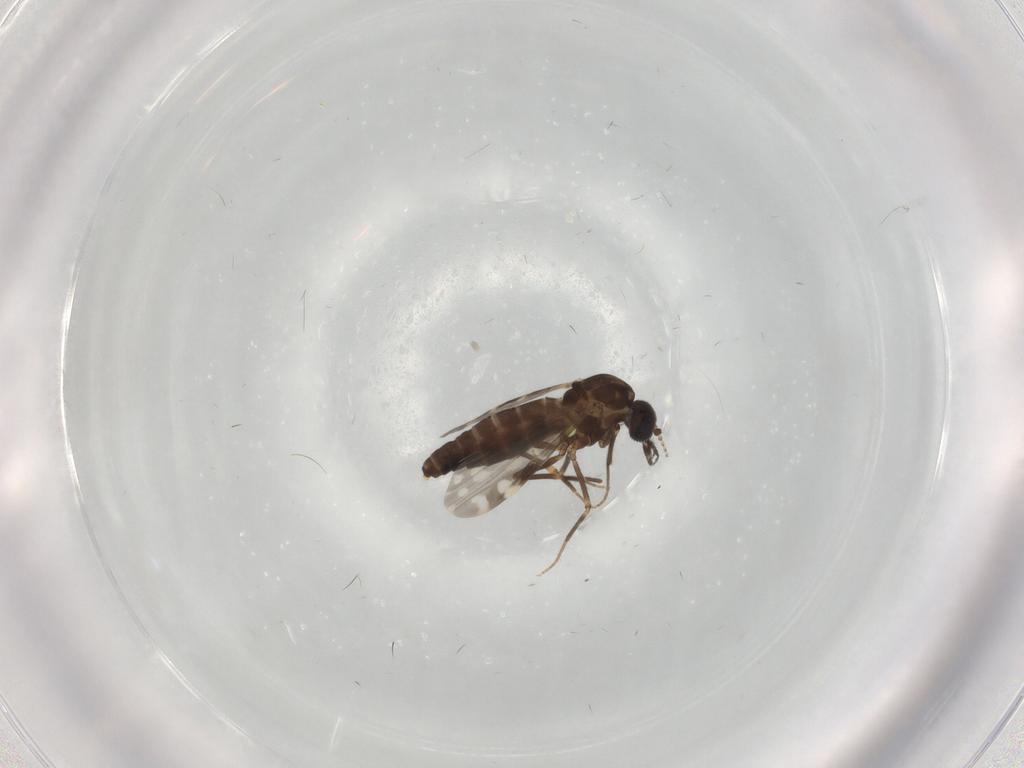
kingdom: Animalia
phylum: Arthropoda
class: Insecta
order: Diptera
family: Ceratopogonidae
